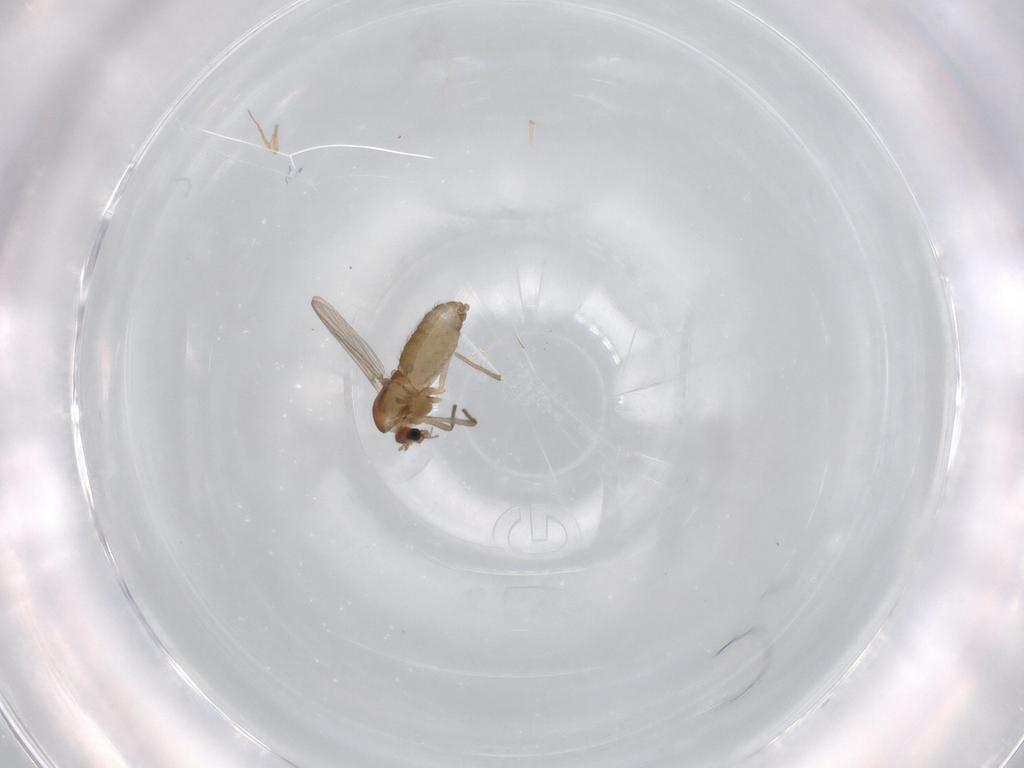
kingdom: Animalia
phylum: Arthropoda
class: Insecta
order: Diptera
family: Chironomidae
